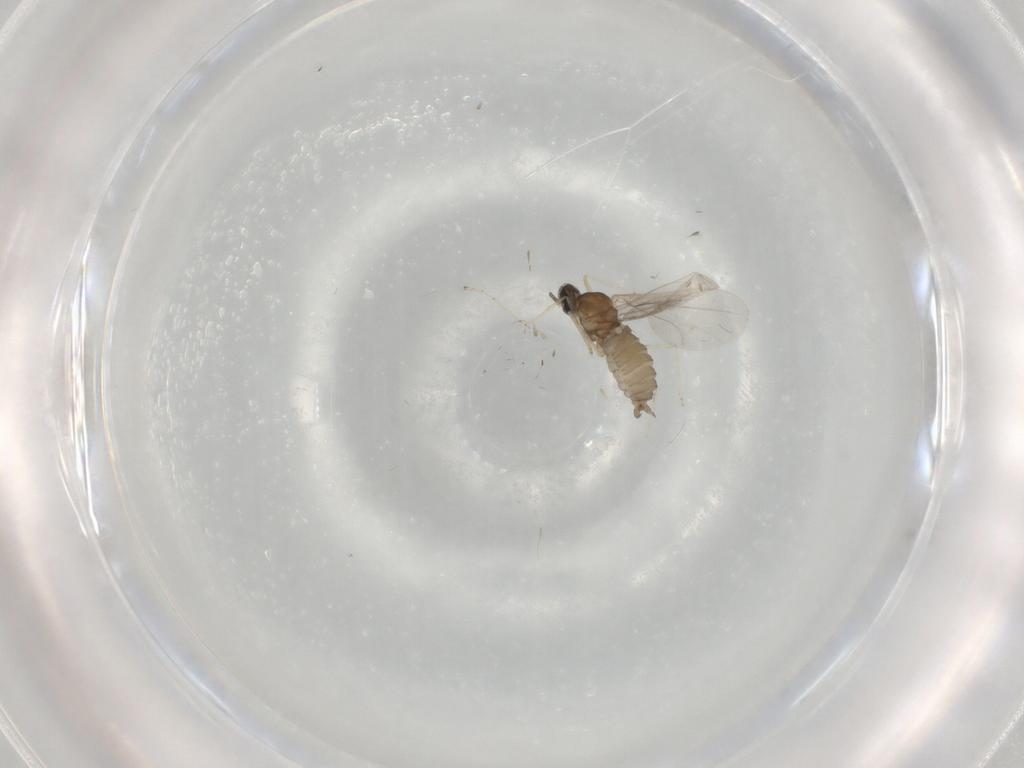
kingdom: Animalia
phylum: Arthropoda
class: Insecta
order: Diptera
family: Cecidomyiidae
